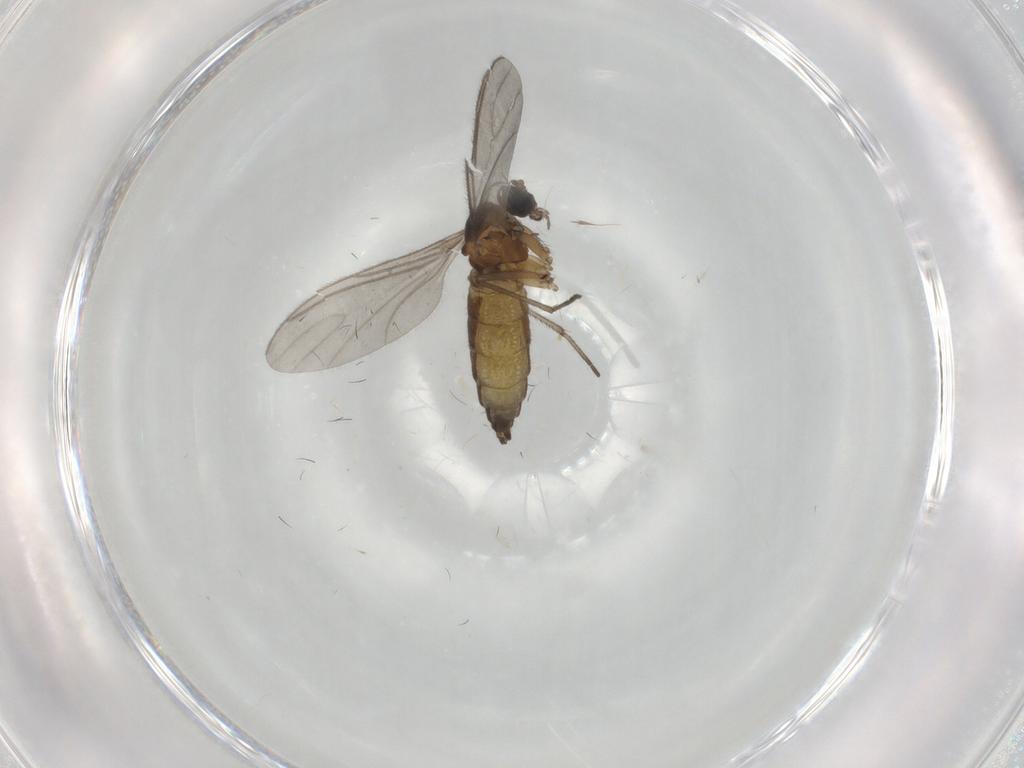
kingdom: Animalia
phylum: Arthropoda
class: Insecta
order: Diptera
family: Sciaridae
